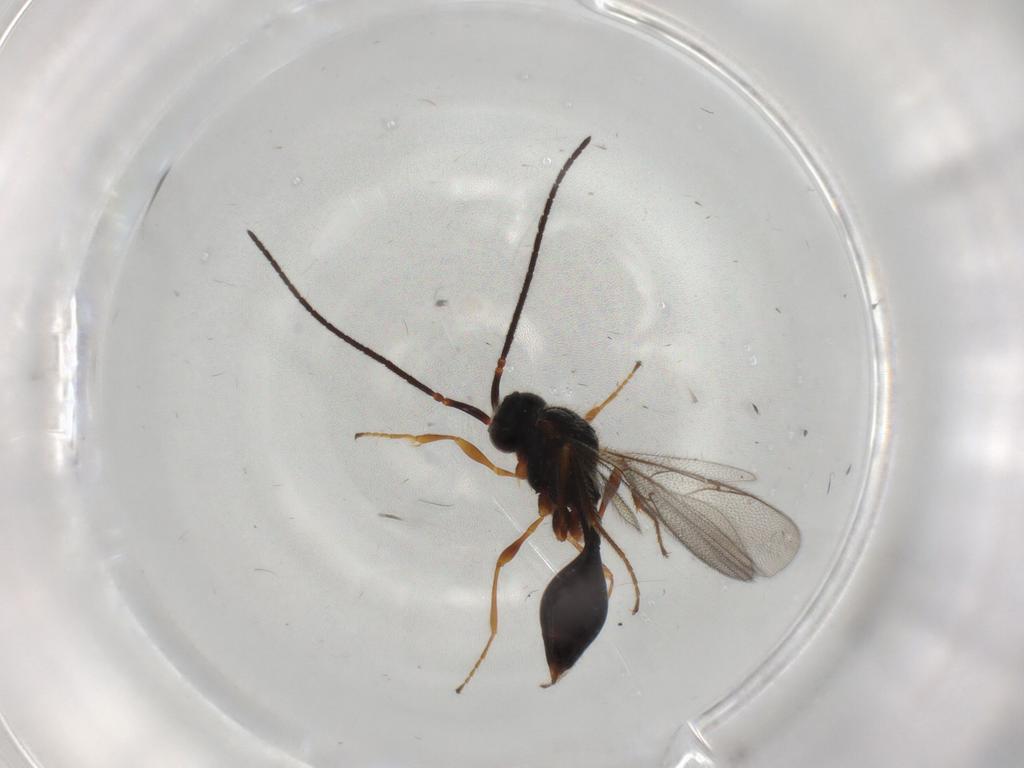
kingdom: Animalia
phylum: Arthropoda
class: Insecta
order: Hymenoptera
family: Diapriidae
